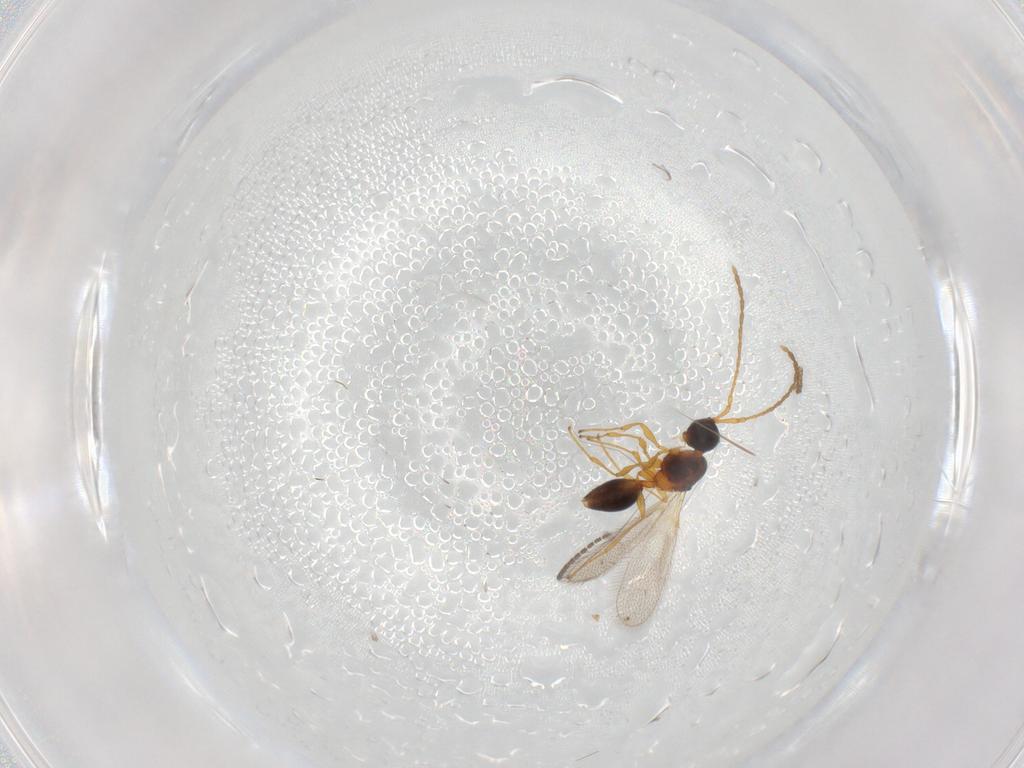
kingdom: Animalia
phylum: Arthropoda
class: Insecta
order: Hymenoptera
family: Diapriidae
